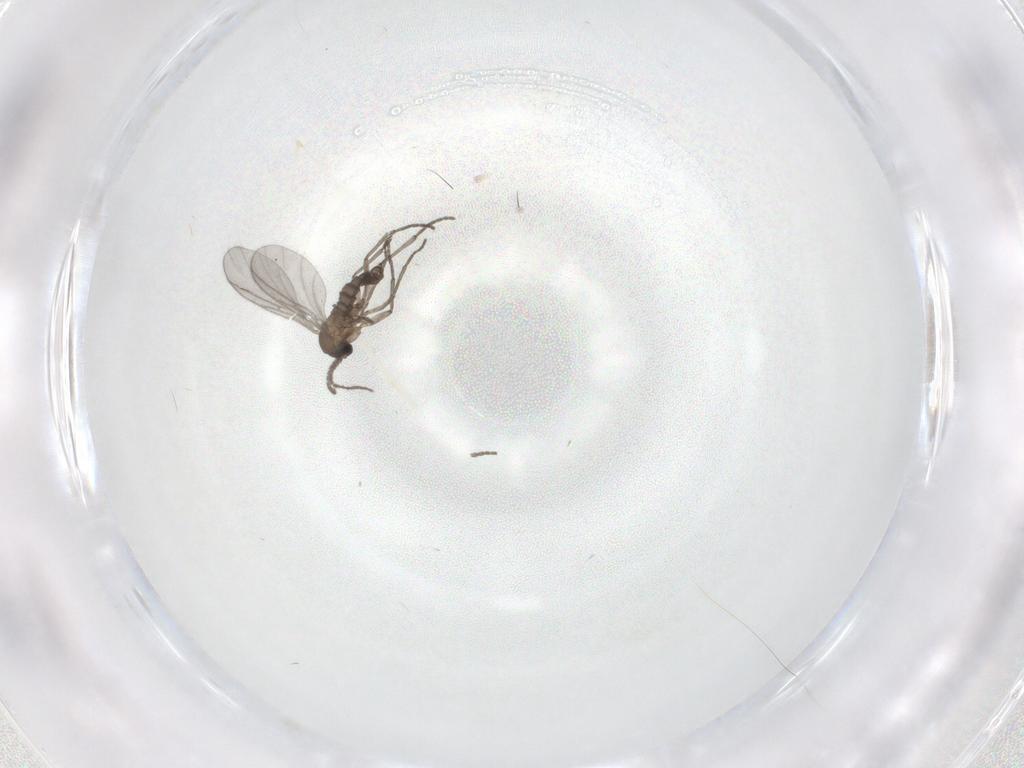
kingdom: Animalia
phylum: Arthropoda
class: Insecta
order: Diptera
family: Sciaridae
